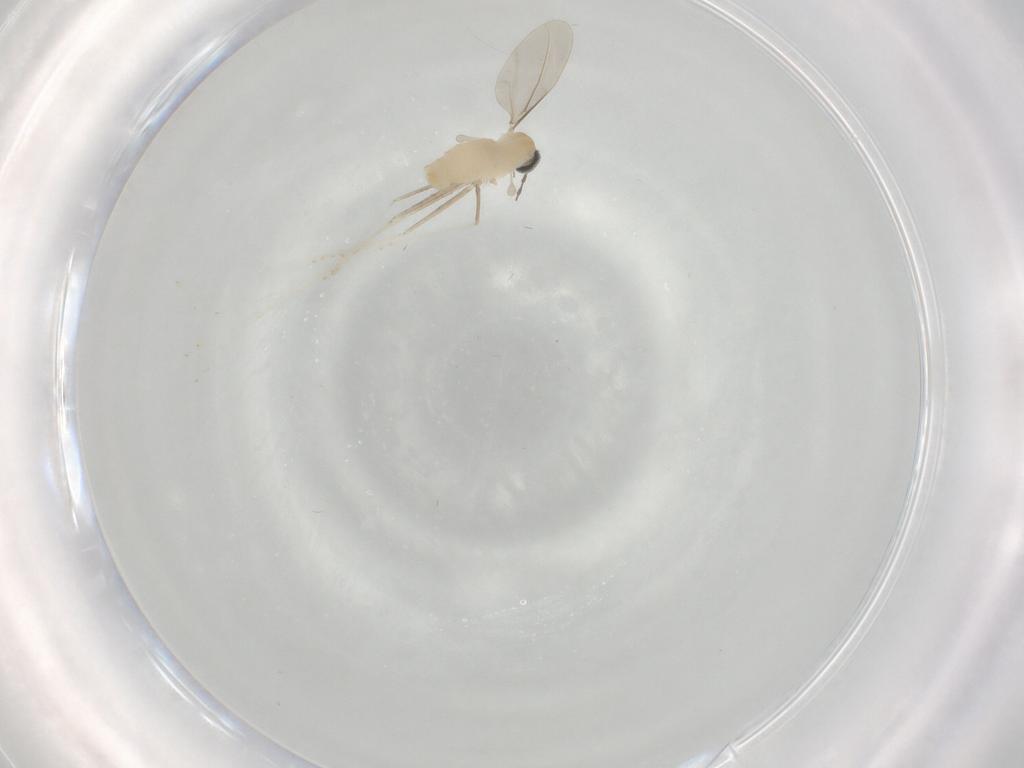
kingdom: Animalia
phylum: Arthropoda
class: Insecta
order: Diptera
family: Cecidomyiidae
